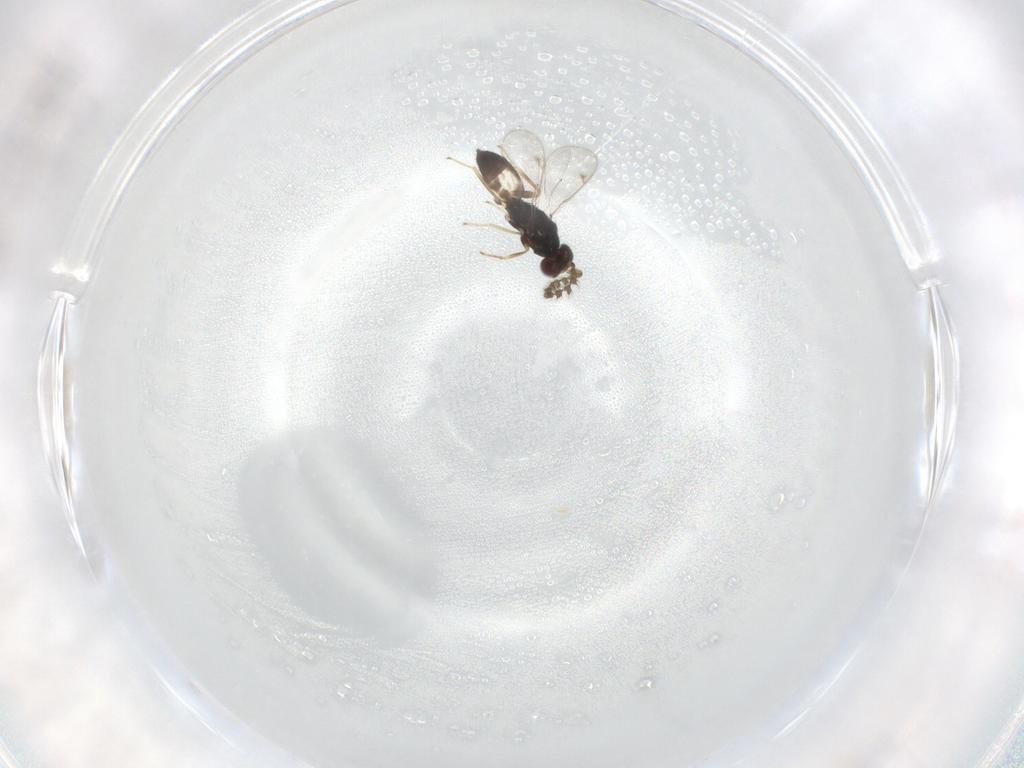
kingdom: Animalia
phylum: Arthropoda
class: Insecta
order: Hymenoptera
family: Eulophidae
